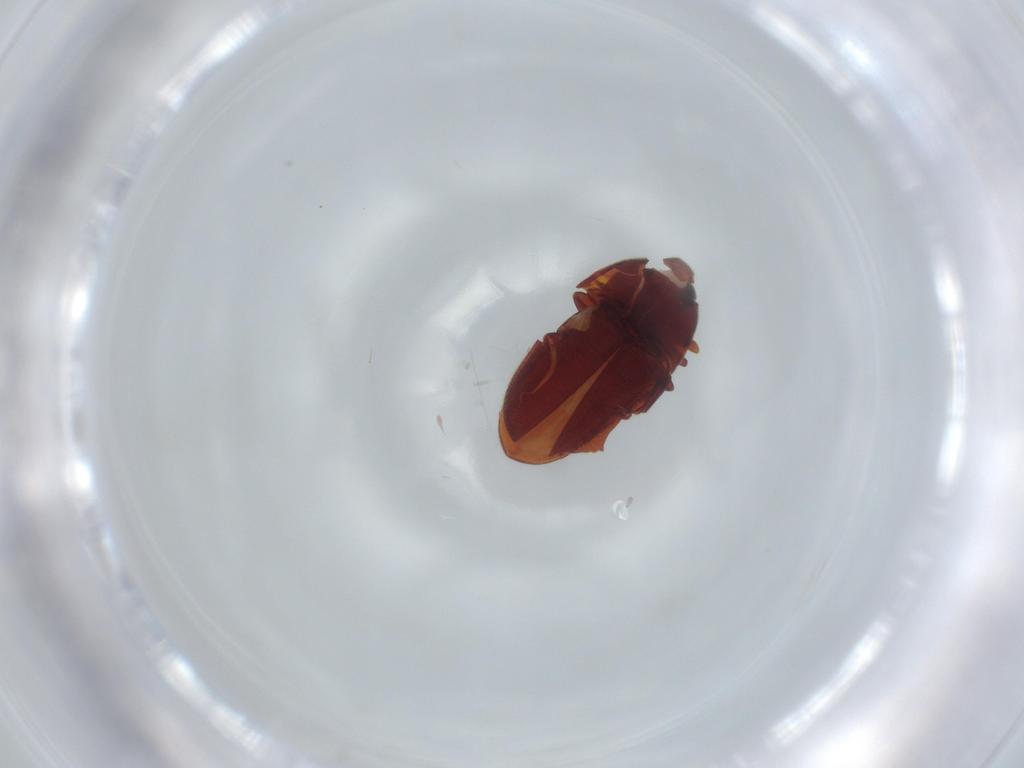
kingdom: Animalia
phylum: Arthropoda
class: Insecta
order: Coleoptera
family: Throscidae
